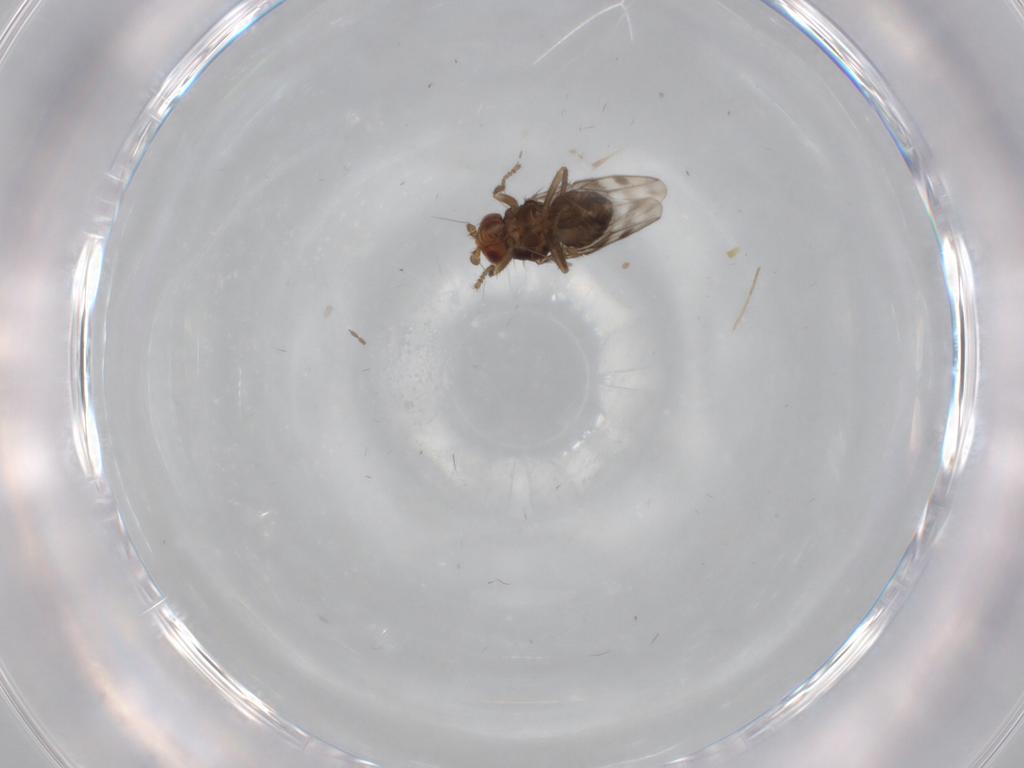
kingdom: Animalia
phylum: Arthropoda
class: Insecta
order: Diptera
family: Sphaeroceridae
